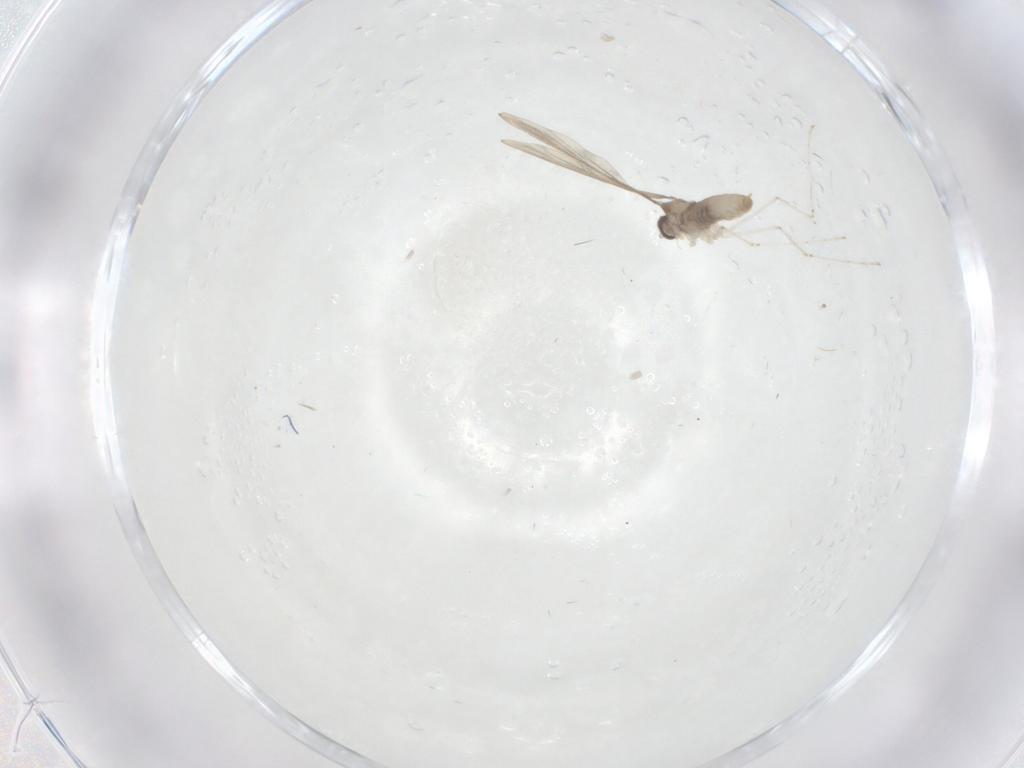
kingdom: Animalia
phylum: Arthropoda
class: Insecta
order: Diptera
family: Cecidomyiidae
